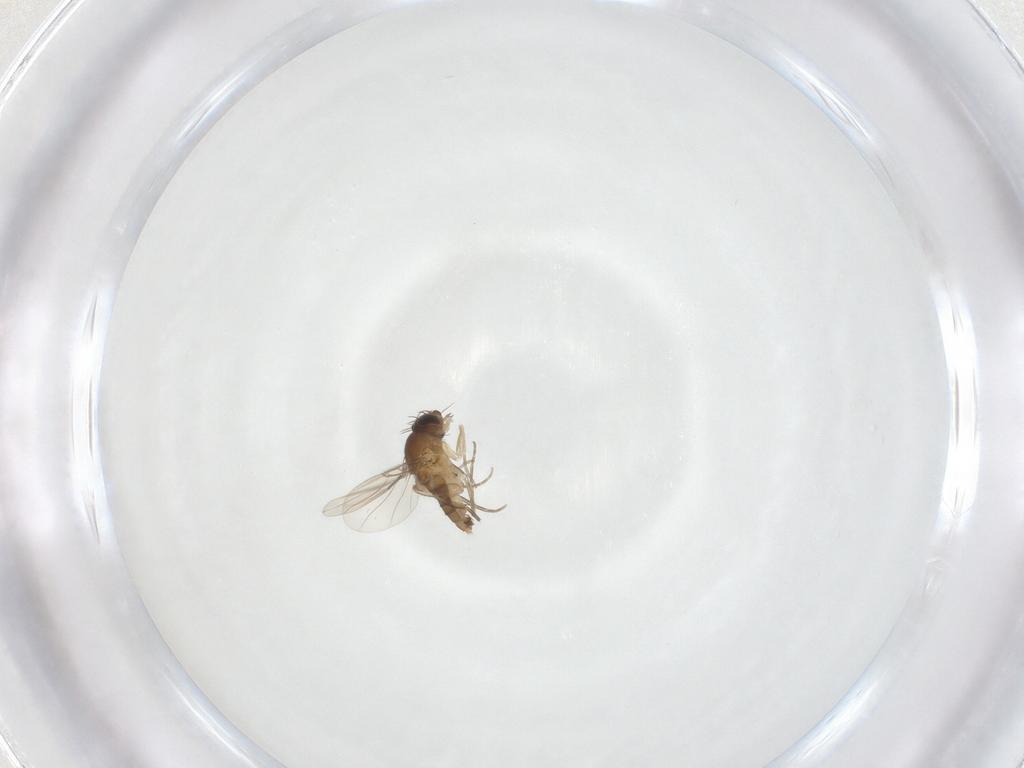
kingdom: Animalia
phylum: Arthropoda
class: Insecta
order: Diptera
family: Phoridae
